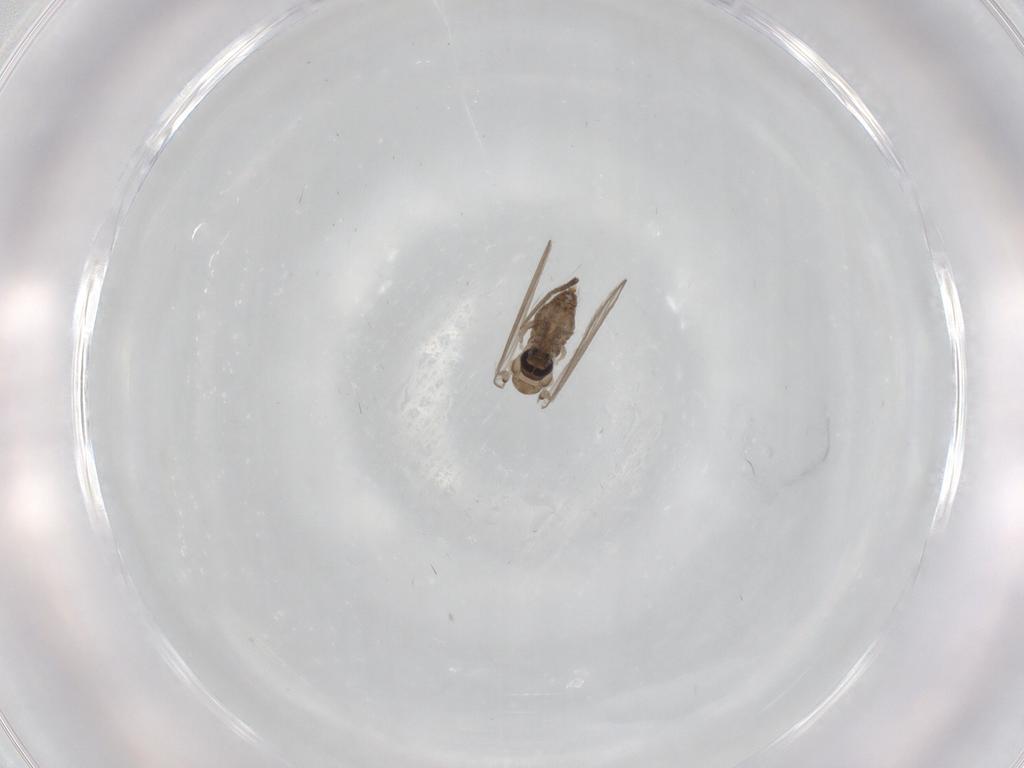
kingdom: Animalia
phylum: Arthropoda
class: Insecta
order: Diptera
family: Psychodidae
